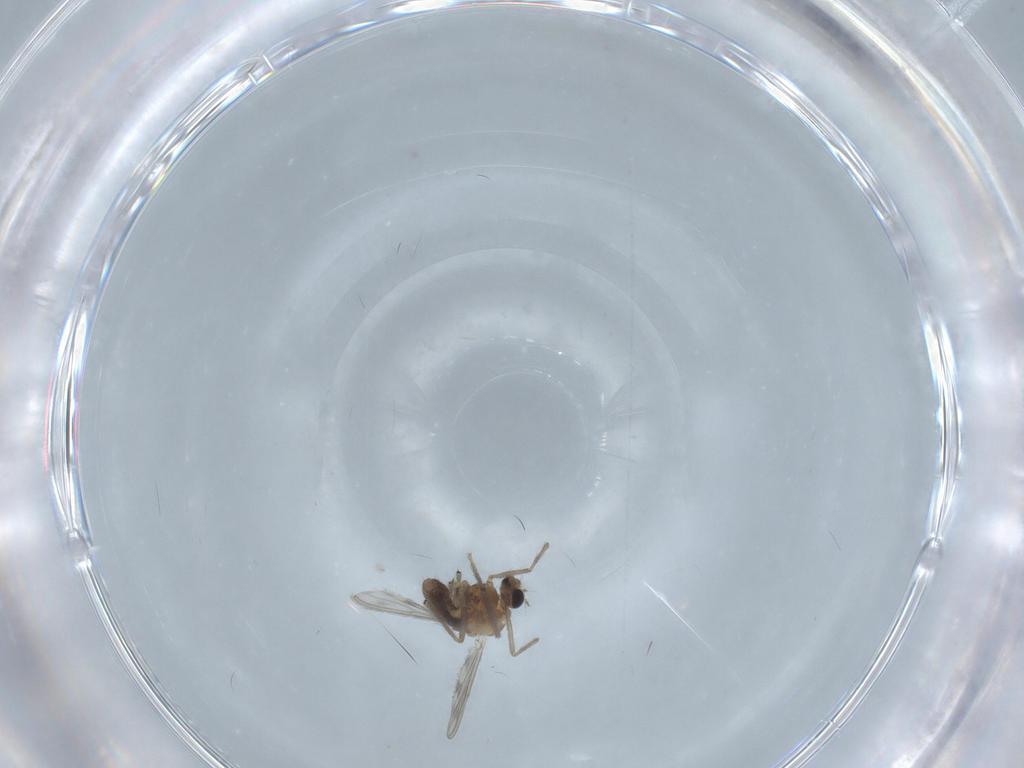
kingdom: Animalia
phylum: Arthropoda
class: Insecta
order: Diptera
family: Chironomidae
